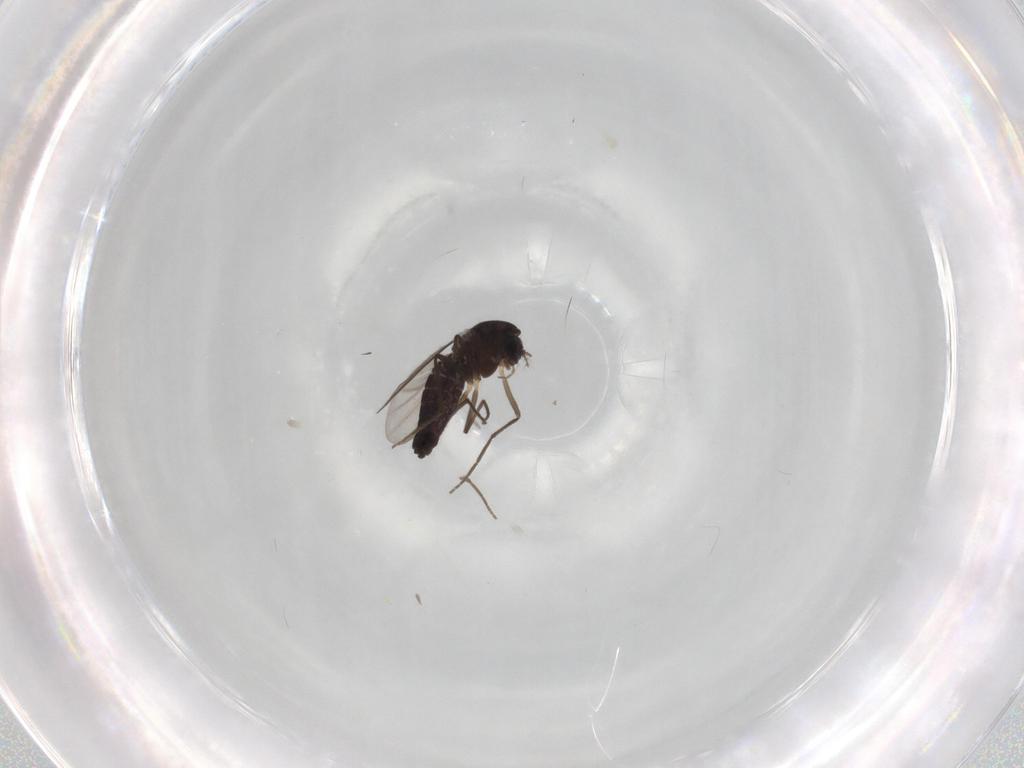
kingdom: Animalia
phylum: Arthropoda
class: Insecta
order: Diptera
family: Chironomidae
